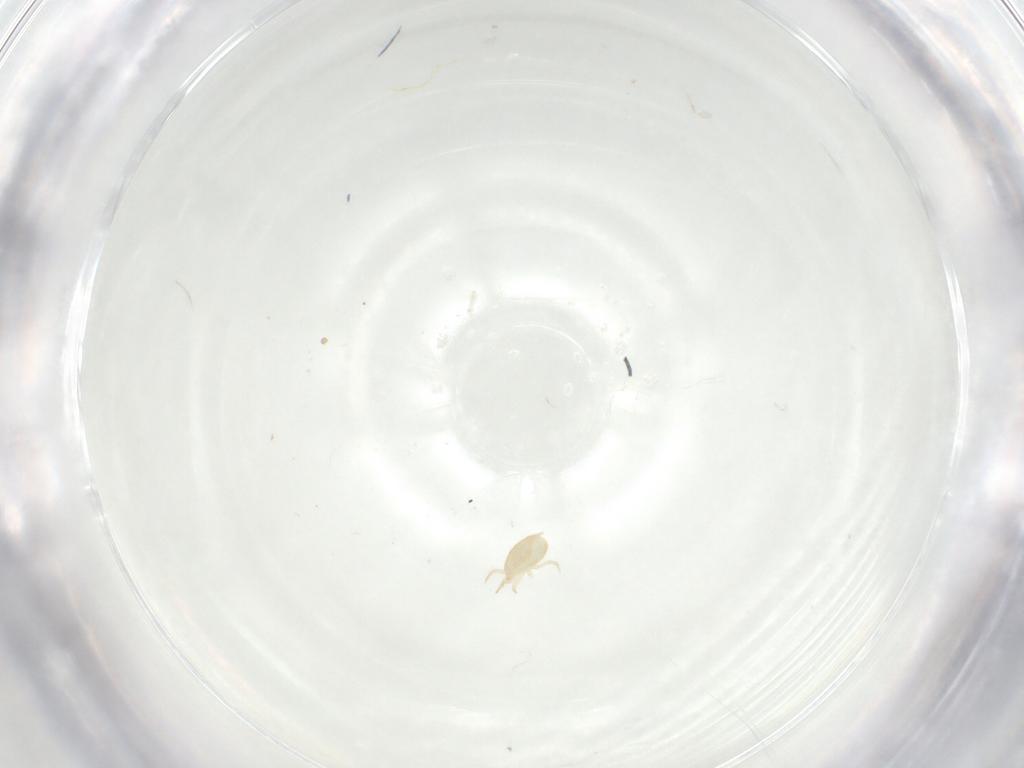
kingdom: Animalia
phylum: Arthropoda
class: Arachnida
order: Mesostigmata
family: Phytoseiidae
